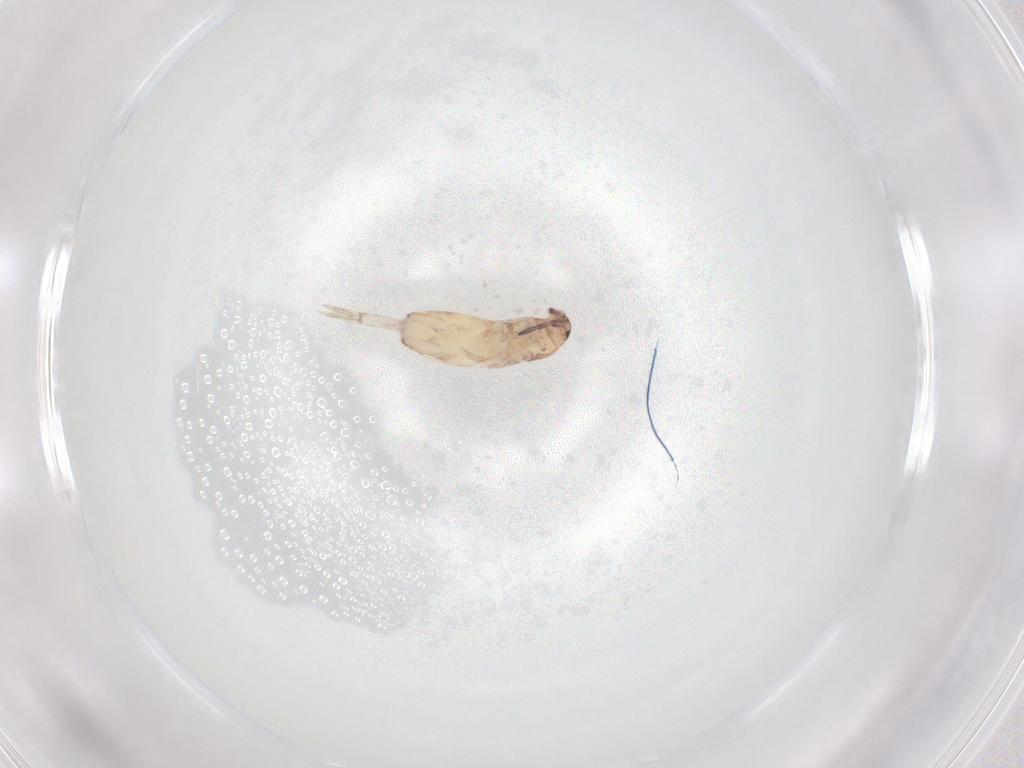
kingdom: Animalia
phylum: Arthropoda
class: Collembola
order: Entomobryomorpha
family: Entomobryidae
